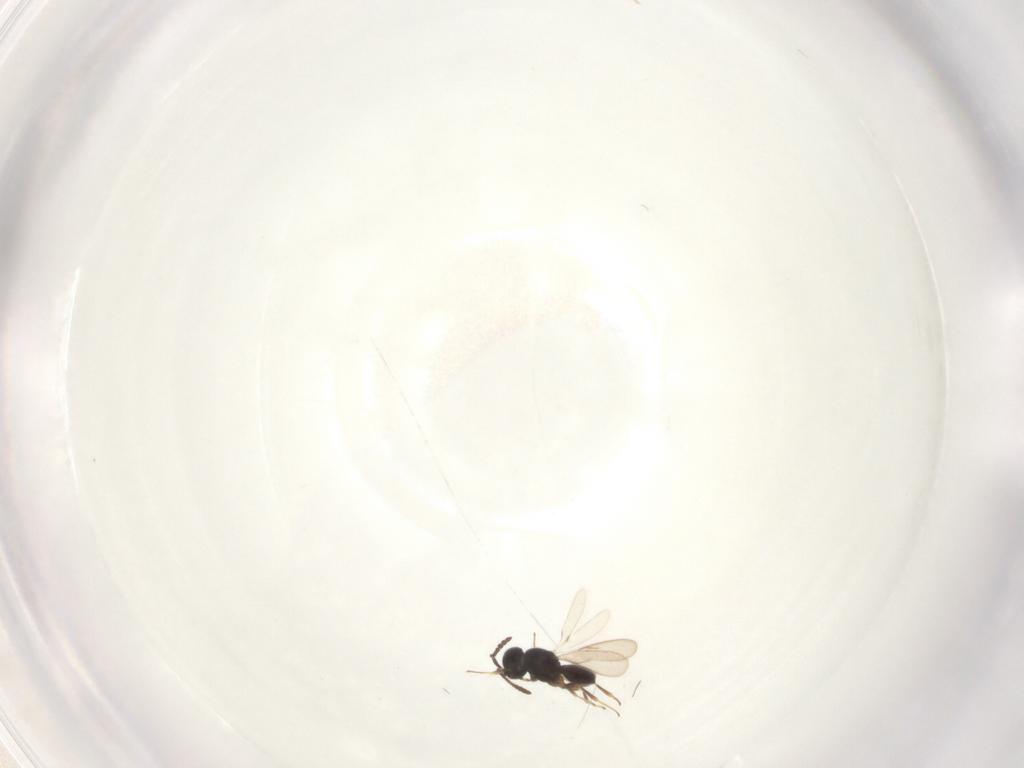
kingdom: Animalia
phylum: Arthropoda
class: Insecta
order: Hymenoptera
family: Scelionidae
